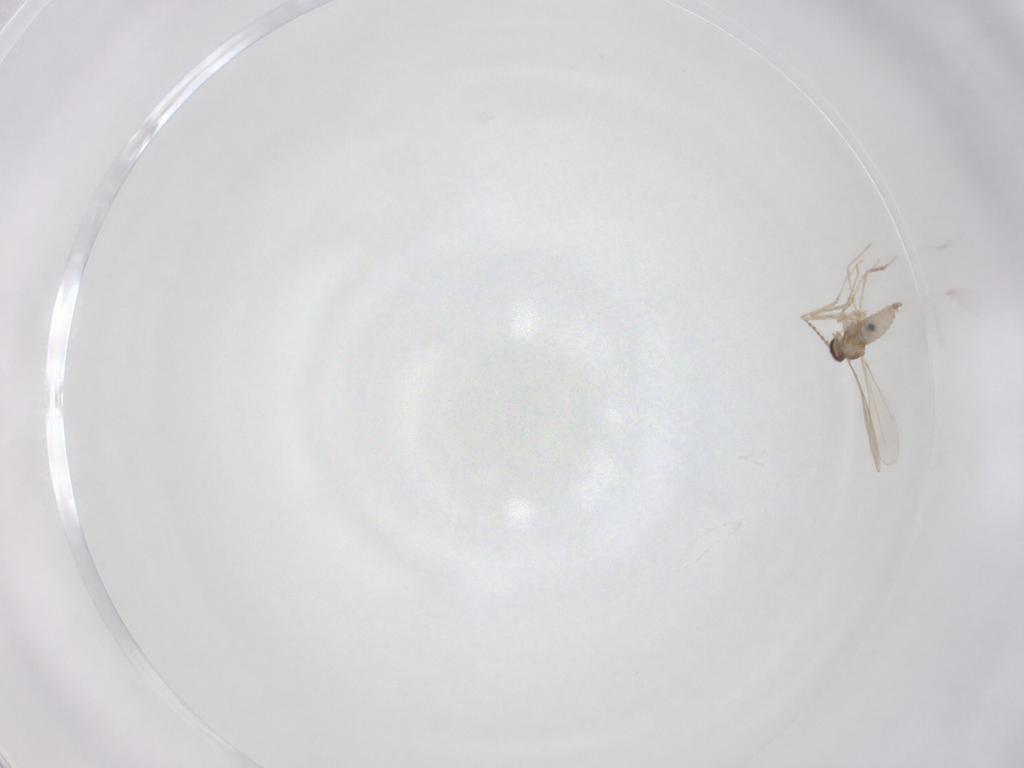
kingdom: Animalia
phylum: Arthropoda
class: Insecta
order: Diptera
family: Cecidomyiidae
